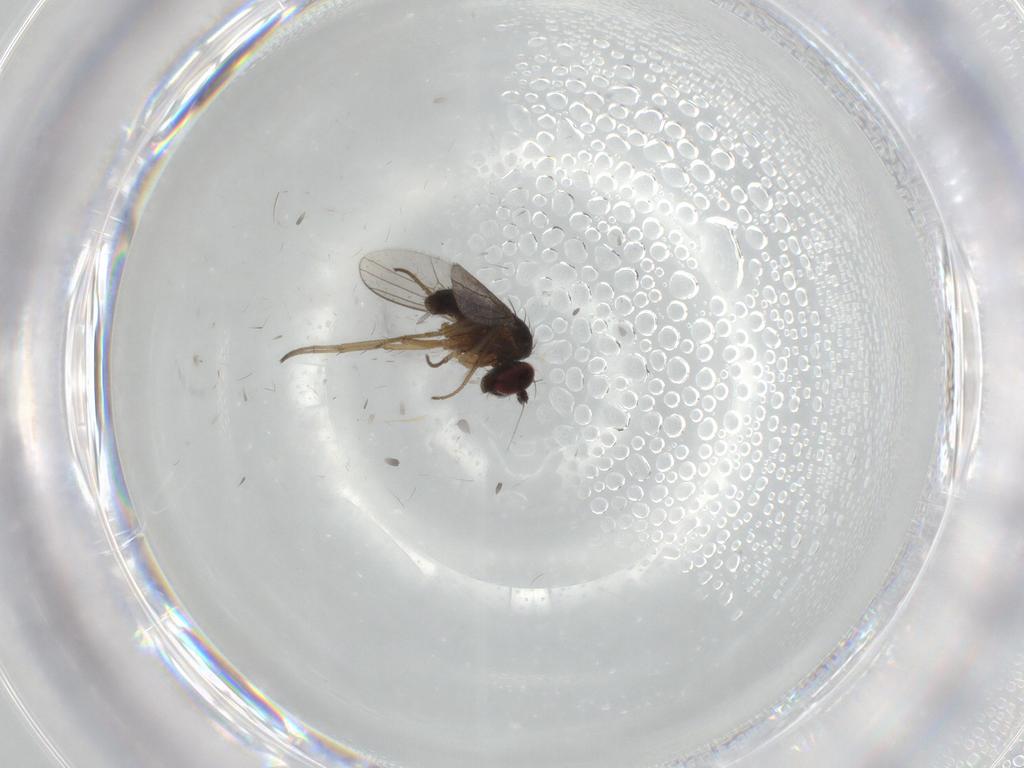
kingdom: Animalia
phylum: Arthropoda
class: Insecta
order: Diptera
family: Dolichopodidae
